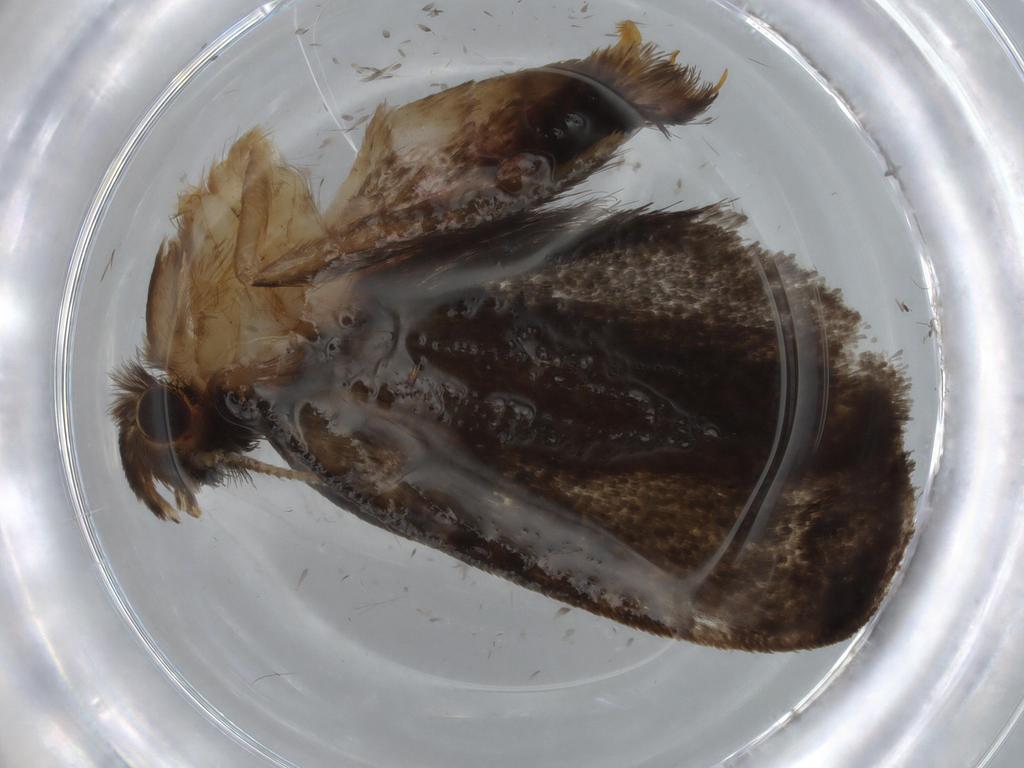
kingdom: Animalia
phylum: Arthropoda
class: Insecta
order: Lepidoptera
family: Tineidae
